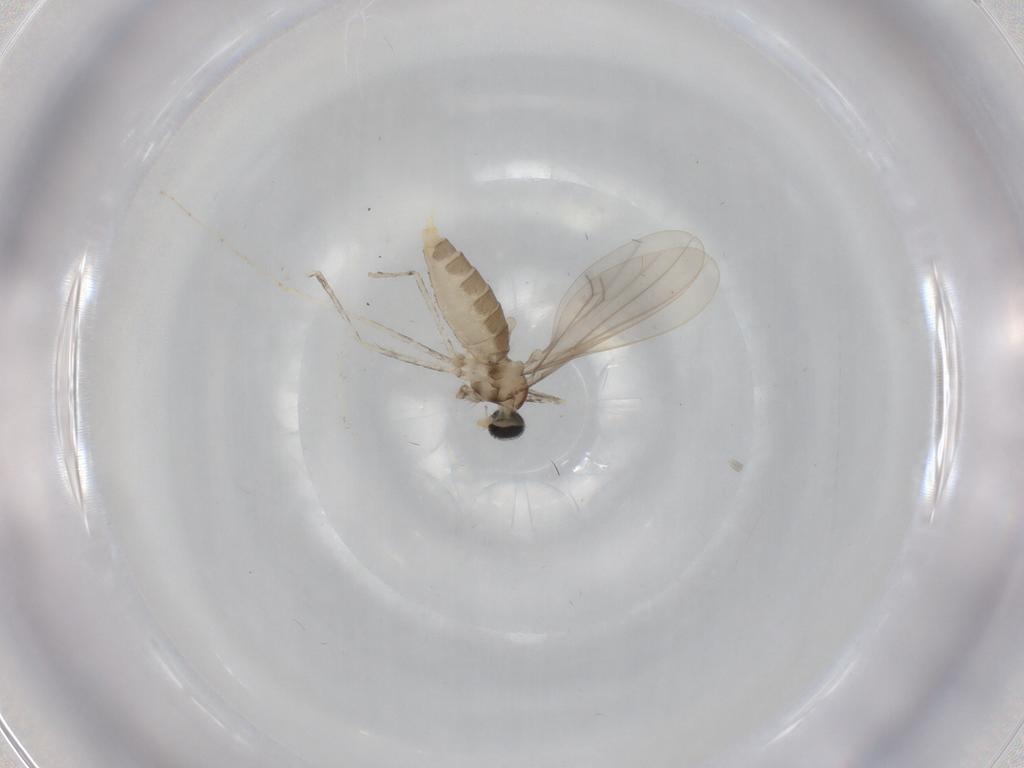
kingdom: Animalia
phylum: Arthropoda
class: Insecta
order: Diptera
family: Cecidomyiidae
